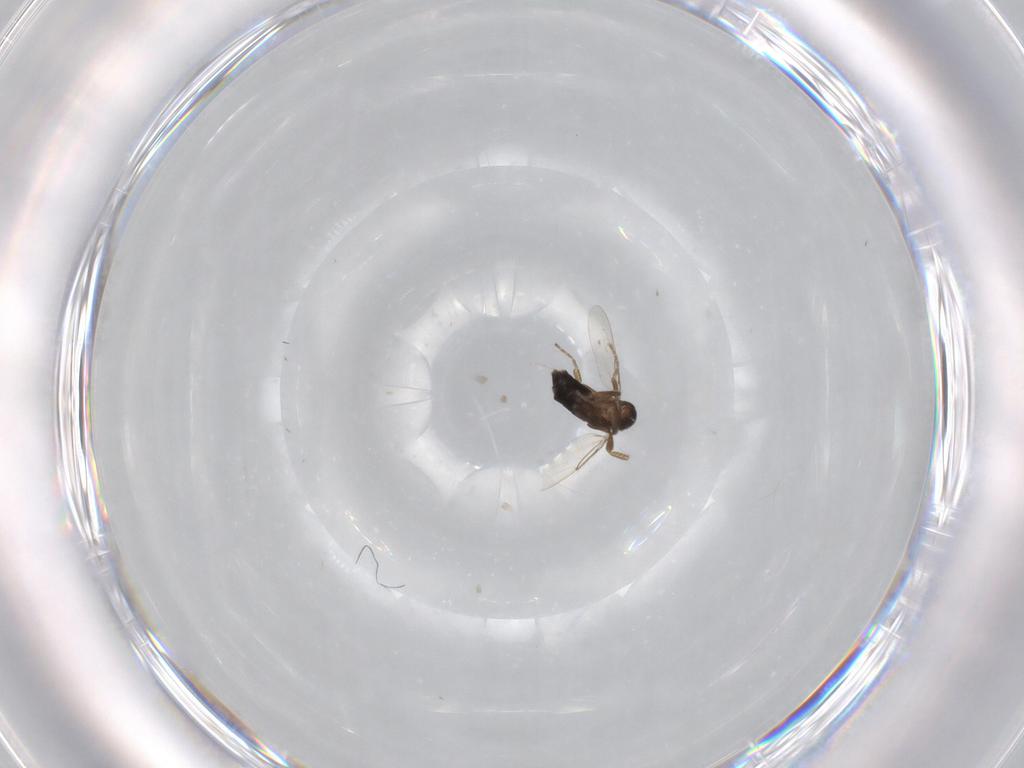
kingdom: Animalia
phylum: Arthropoda
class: Insecta
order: Diptera
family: Phoridae
